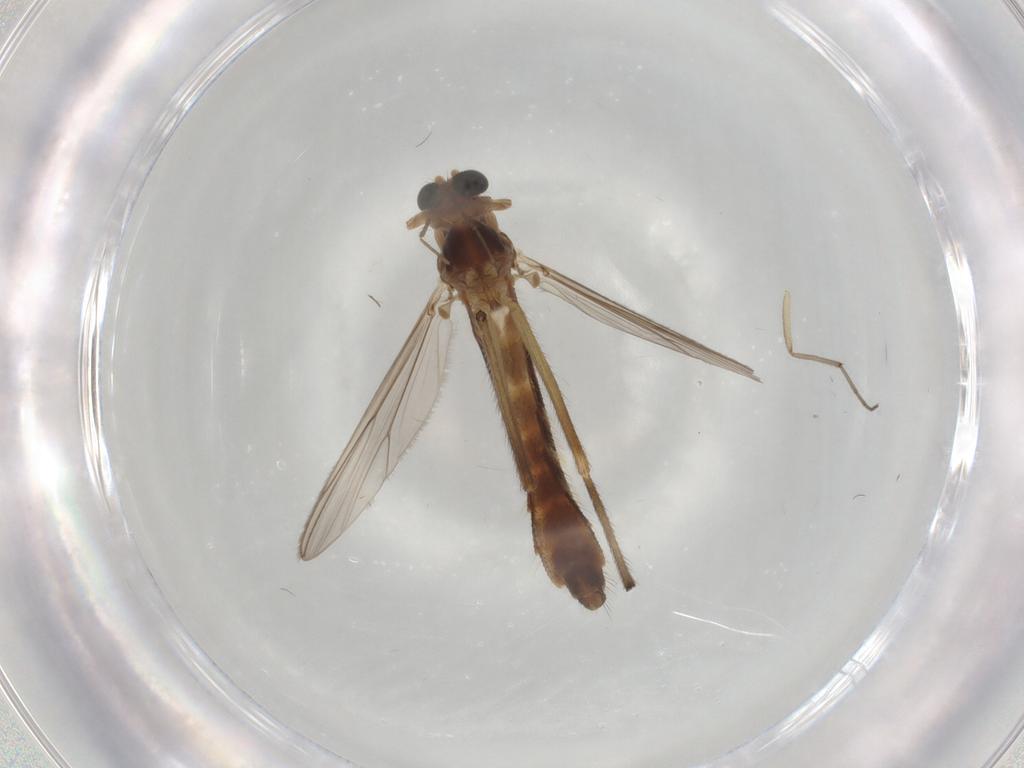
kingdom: Animalia
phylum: Arthropoda
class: Insecta
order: Diptera
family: Chironomidae
